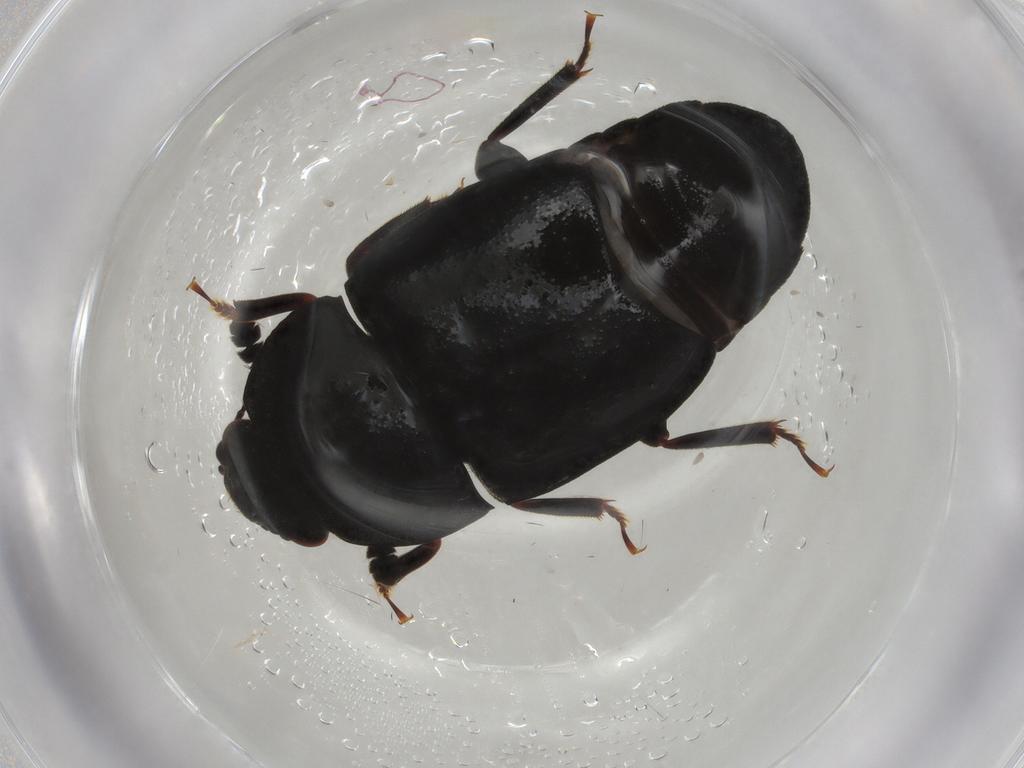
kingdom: Animalia
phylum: Arthropoda
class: Insecta
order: Coleoptera
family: Nitidulidae
